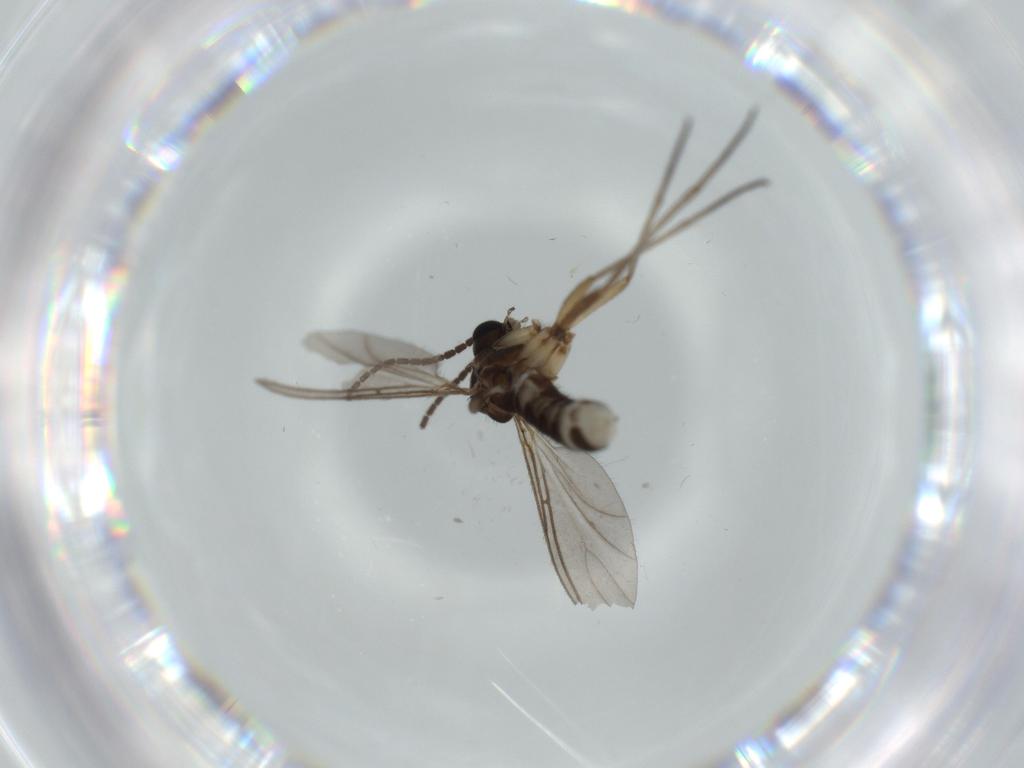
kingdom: Animalia
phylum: Arthropoda
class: Insecta
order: Diptera
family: Sciaridae
